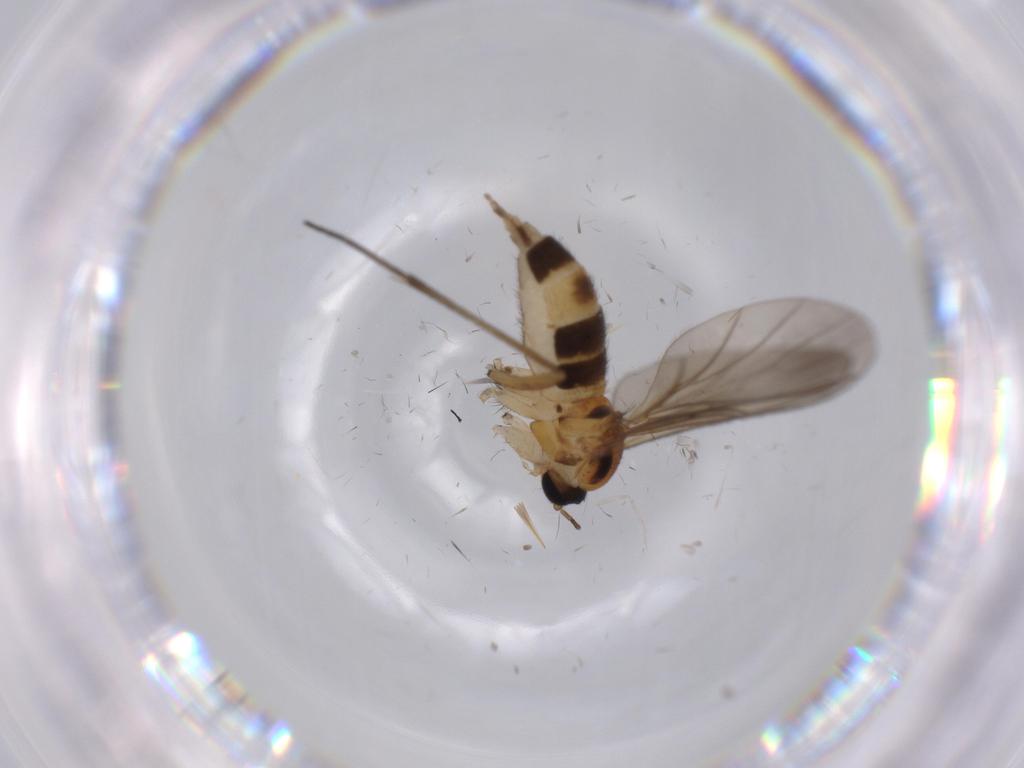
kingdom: Animalia
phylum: Arthropoda
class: Insecta
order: Diptera
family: Cecidomyiidae
